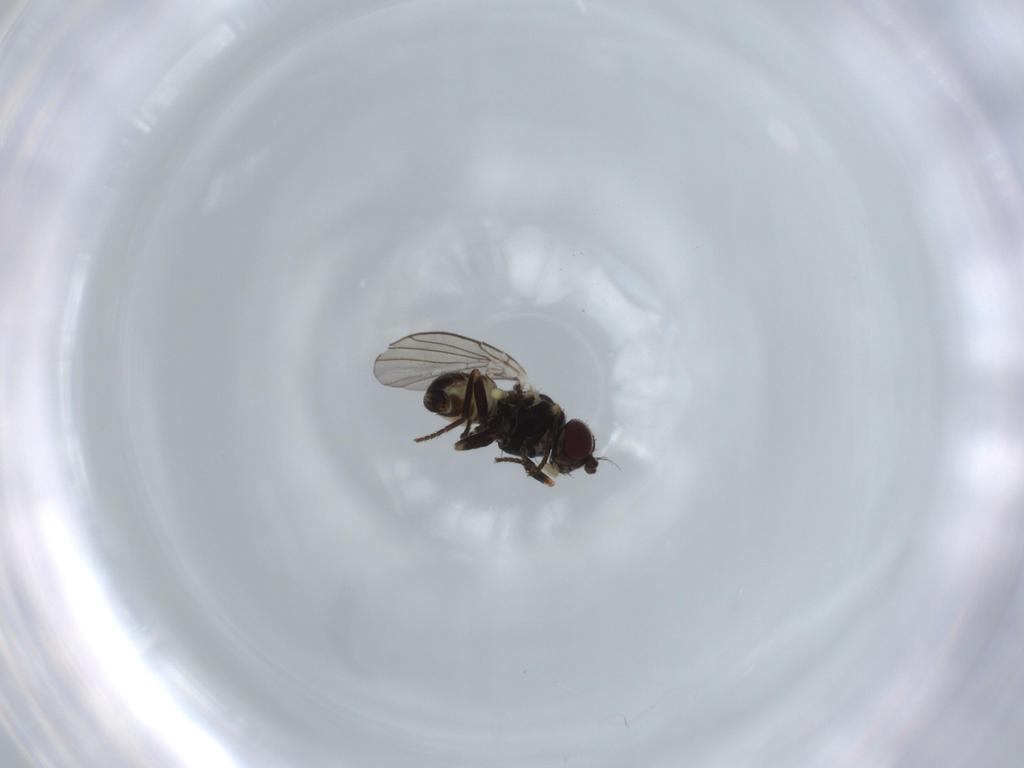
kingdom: Animalia
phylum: Arthropoda
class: Insecta
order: Diptera
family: Agromyzidae
